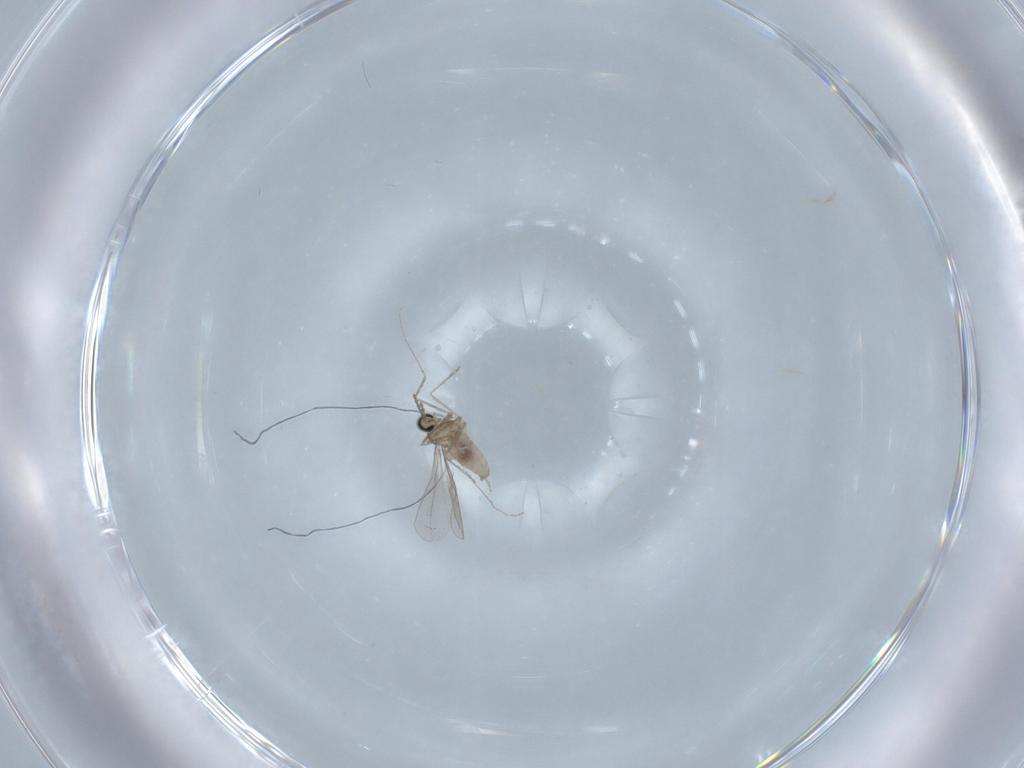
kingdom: Animalia
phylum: Arthropoda
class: Insecta
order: Diptera
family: Cecidomyiidae
